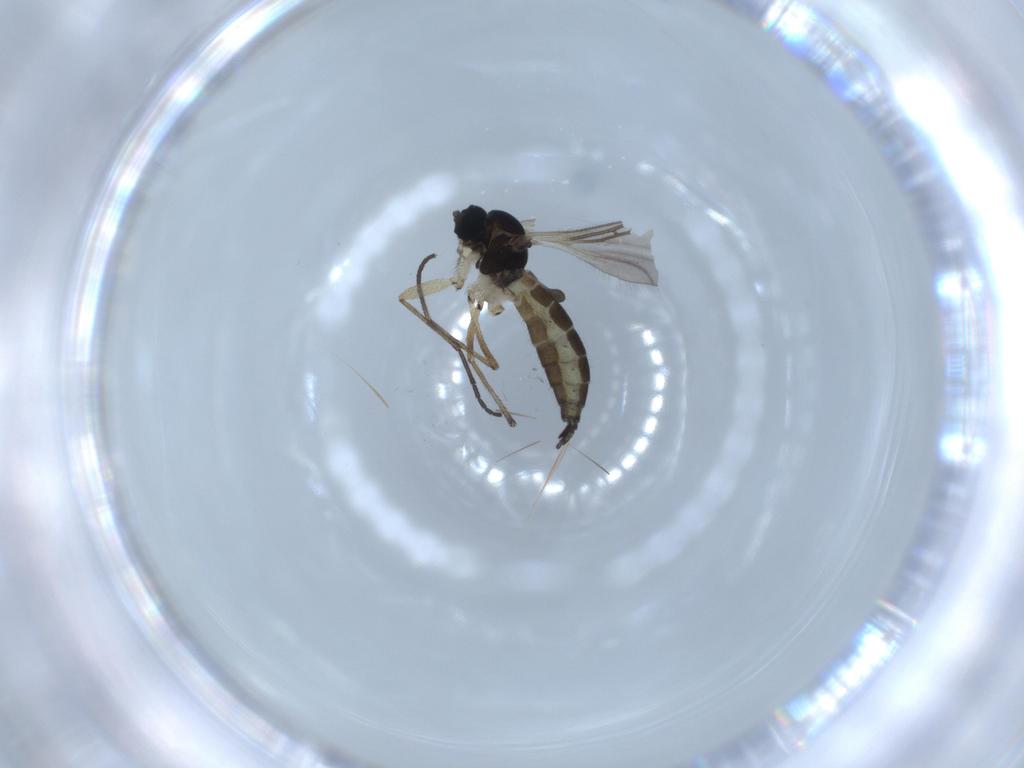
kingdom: Animalia
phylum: Arthropoda
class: Insecta
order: Diptera
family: Sciaridae
